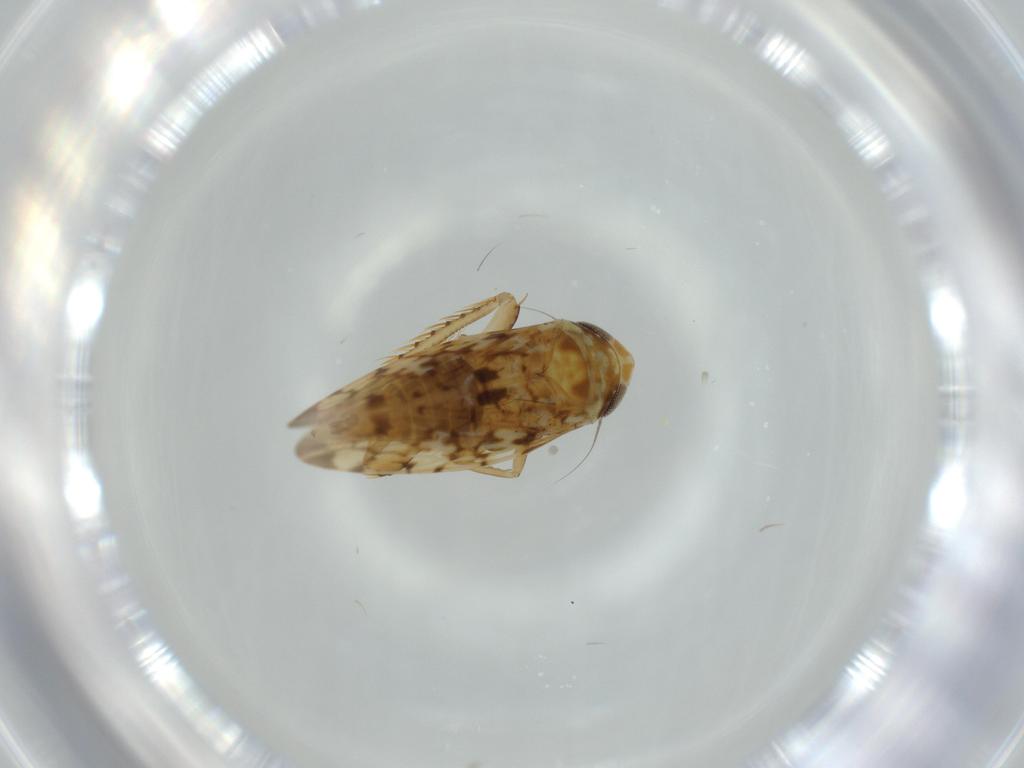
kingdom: Animalia
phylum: Arthropoda
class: Insecta
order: Hemiptera
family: Cicadellidae
